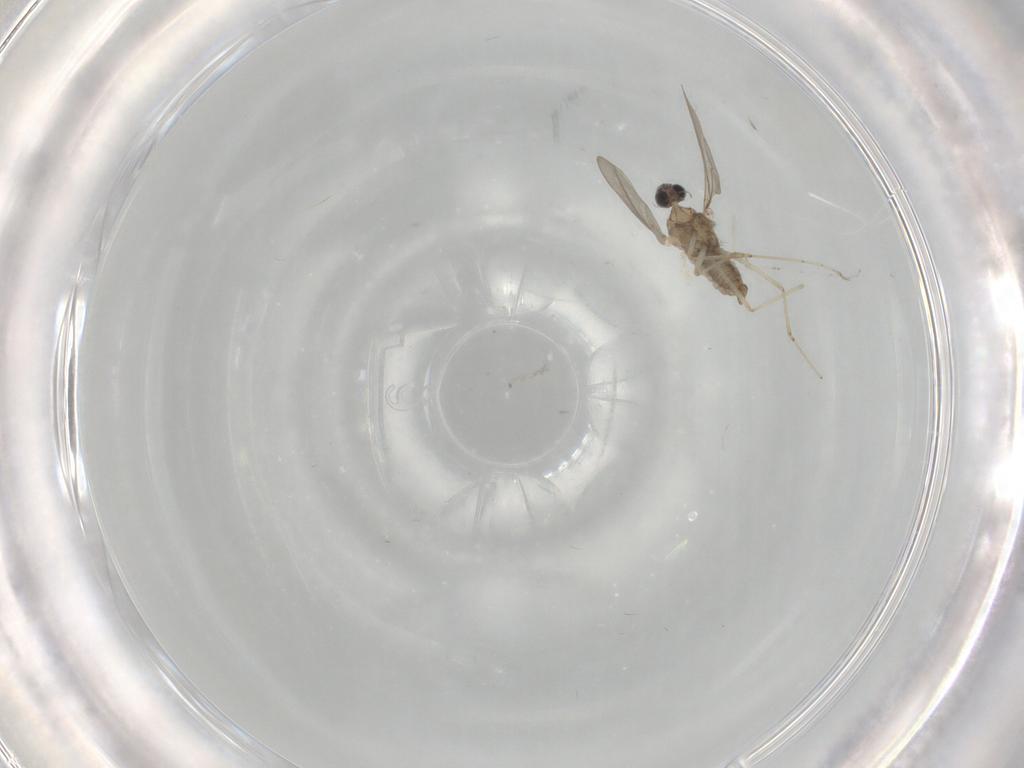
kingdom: Animalia
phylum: Arthropoda
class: Insecta
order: Diptera
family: Cecidomyiidae
